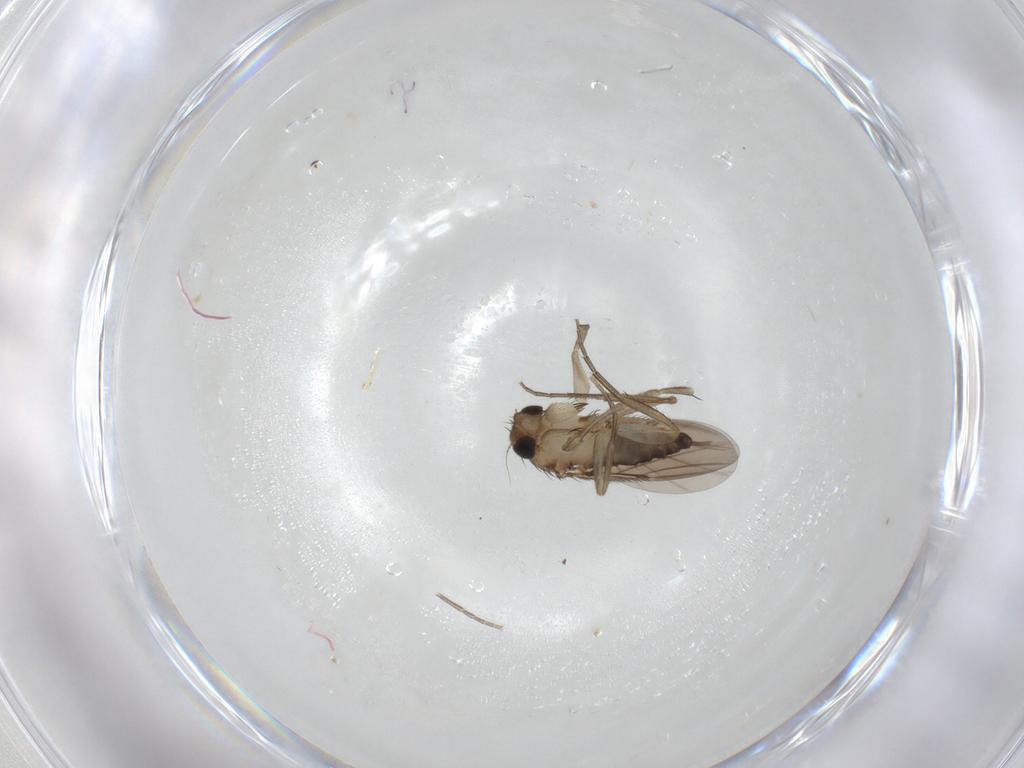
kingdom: Animalia
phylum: Arthropoda
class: Insecta
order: Diptera
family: Phoridae
